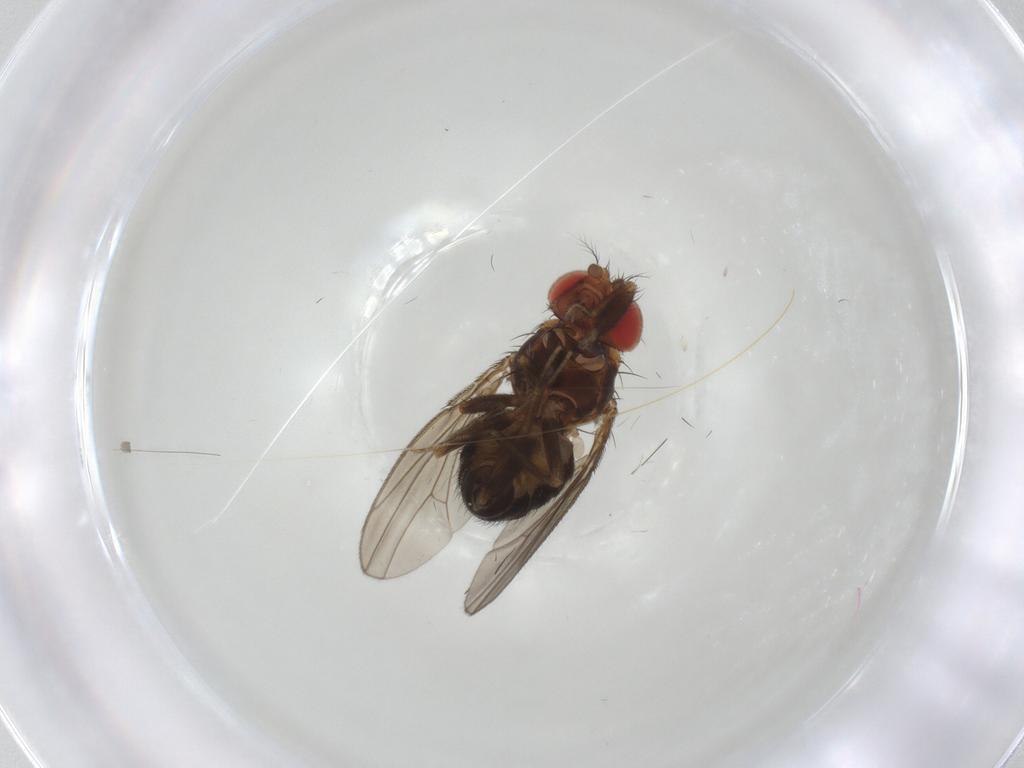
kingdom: Animalia
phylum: Arthropoda
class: Insecta
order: Diptera
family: Drosophilidae
